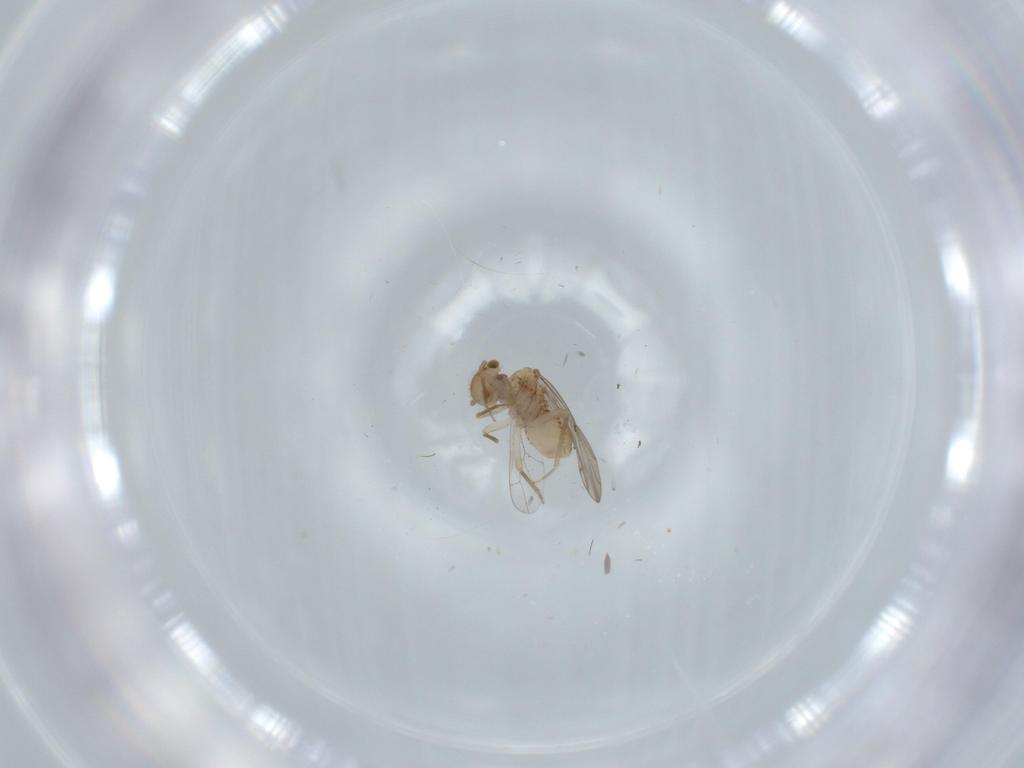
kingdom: Animalia
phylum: Arthropoda
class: Insecta
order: Psocodea
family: Ectopsocidae
